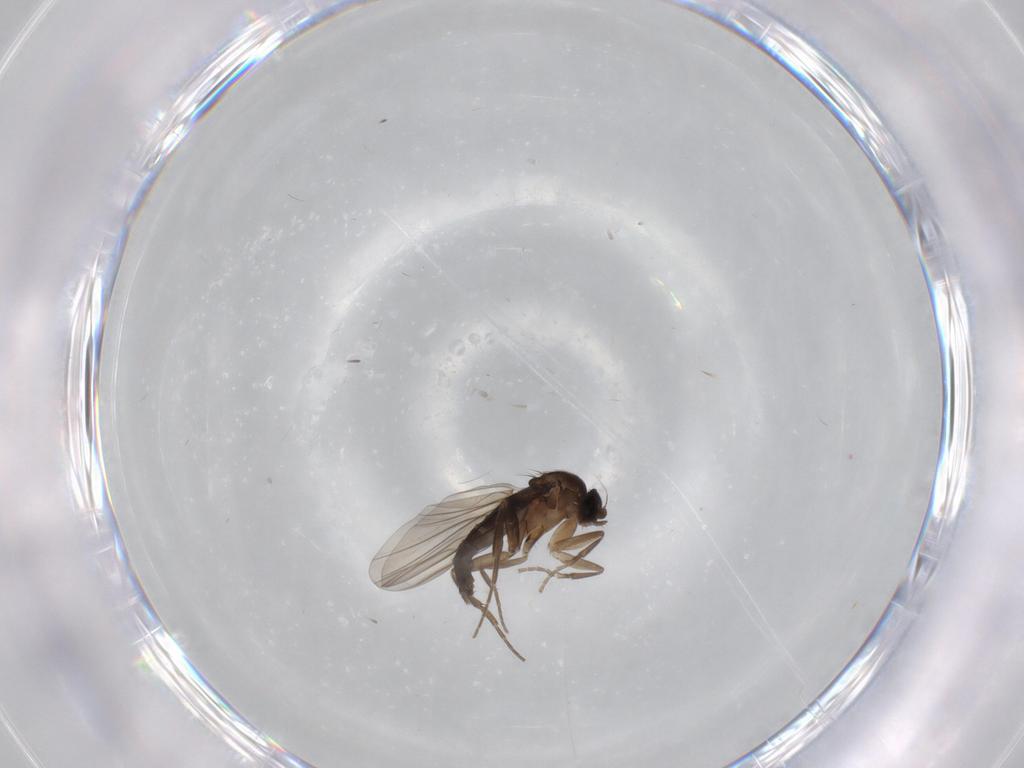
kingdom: Animalia
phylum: Arthropoda
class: Insecta
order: Diptera
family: Phoridae
